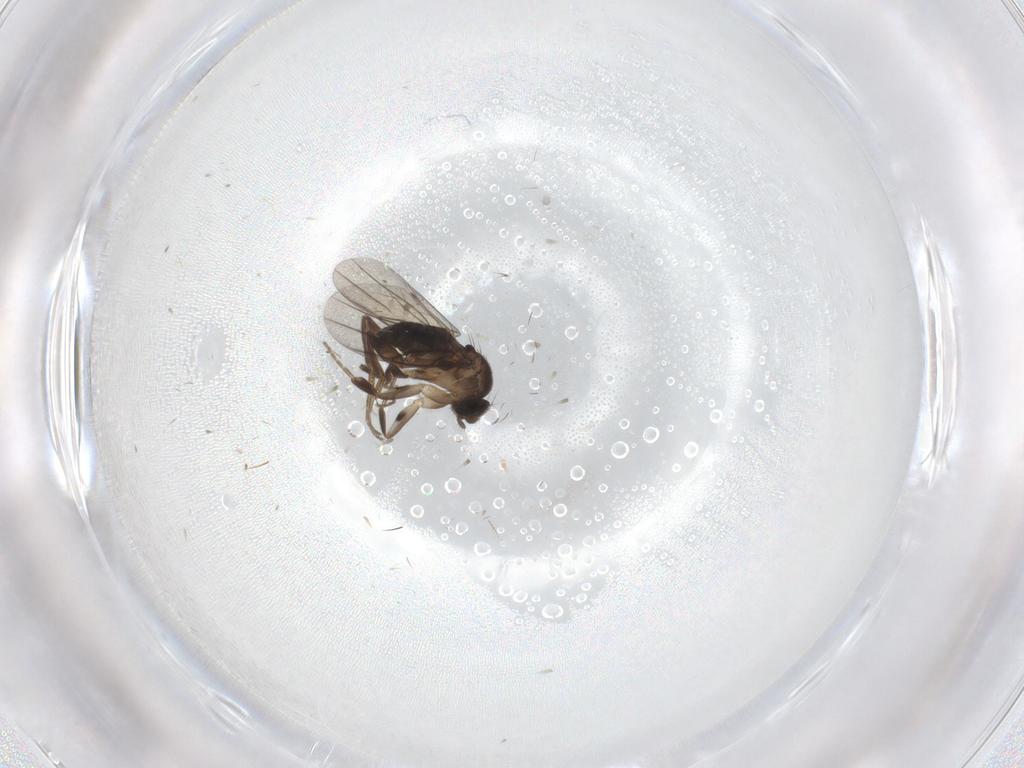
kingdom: Animalia
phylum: Arthropoda
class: Insecta
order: Diptera
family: Phoridae
